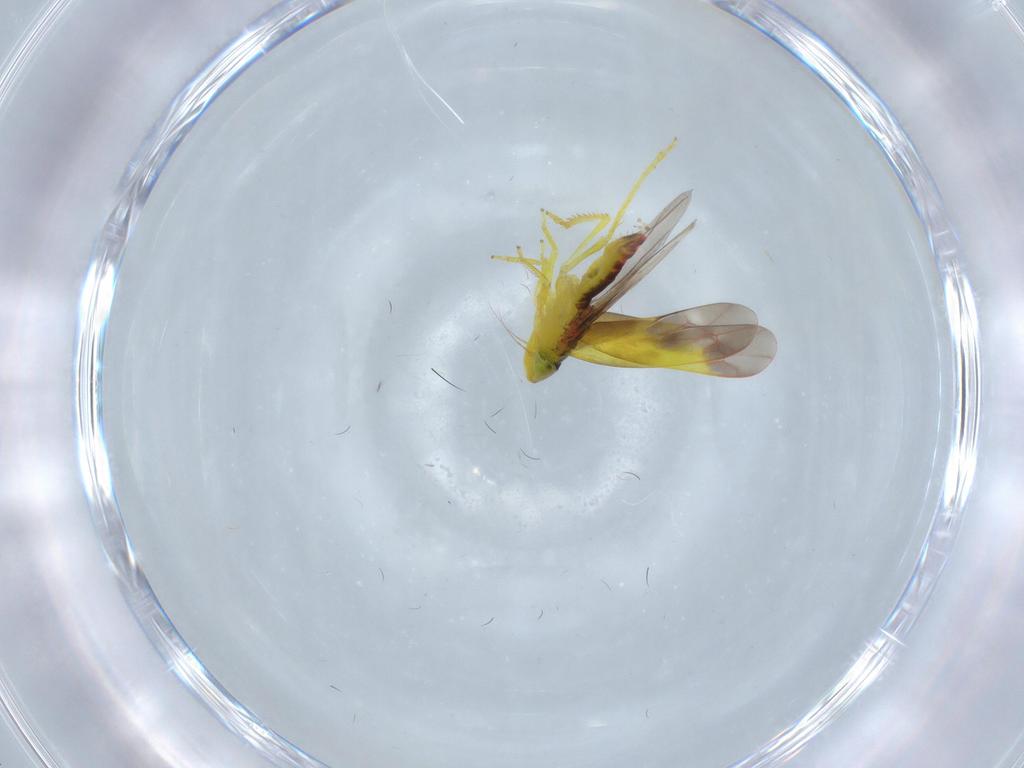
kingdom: Animalia
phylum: Arthropoda
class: Insecta
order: Hemiptera
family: Cicadellidae
